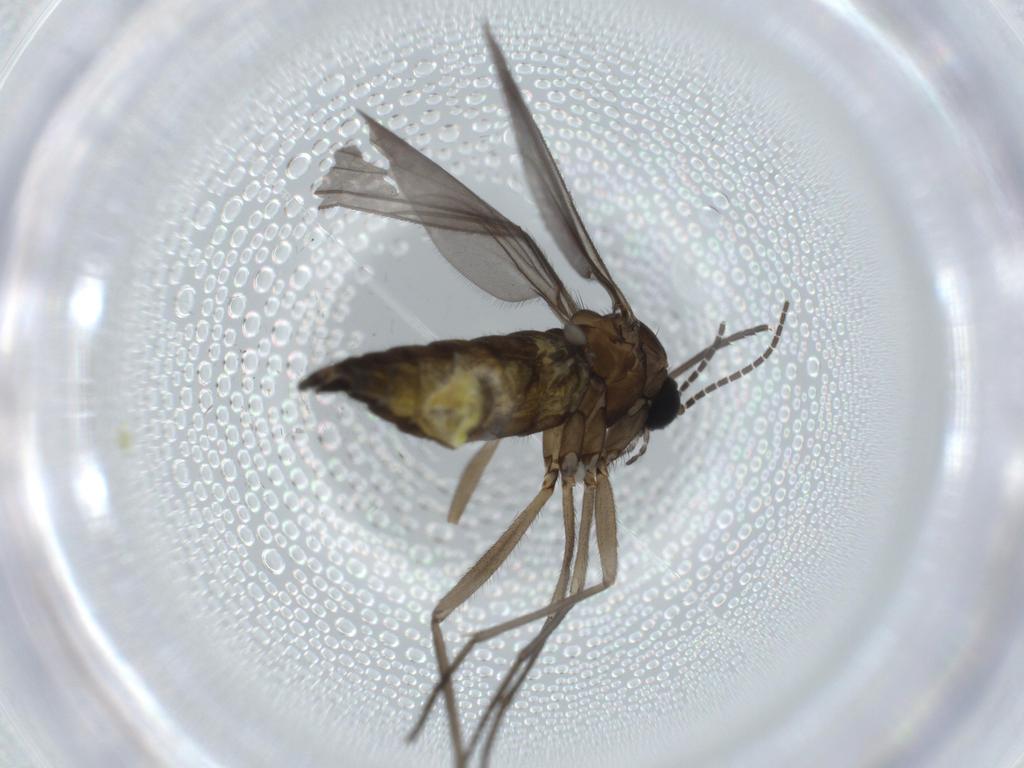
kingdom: Animalia
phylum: Arthropoda
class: Insecta
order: Diptera
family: Sciaridae
